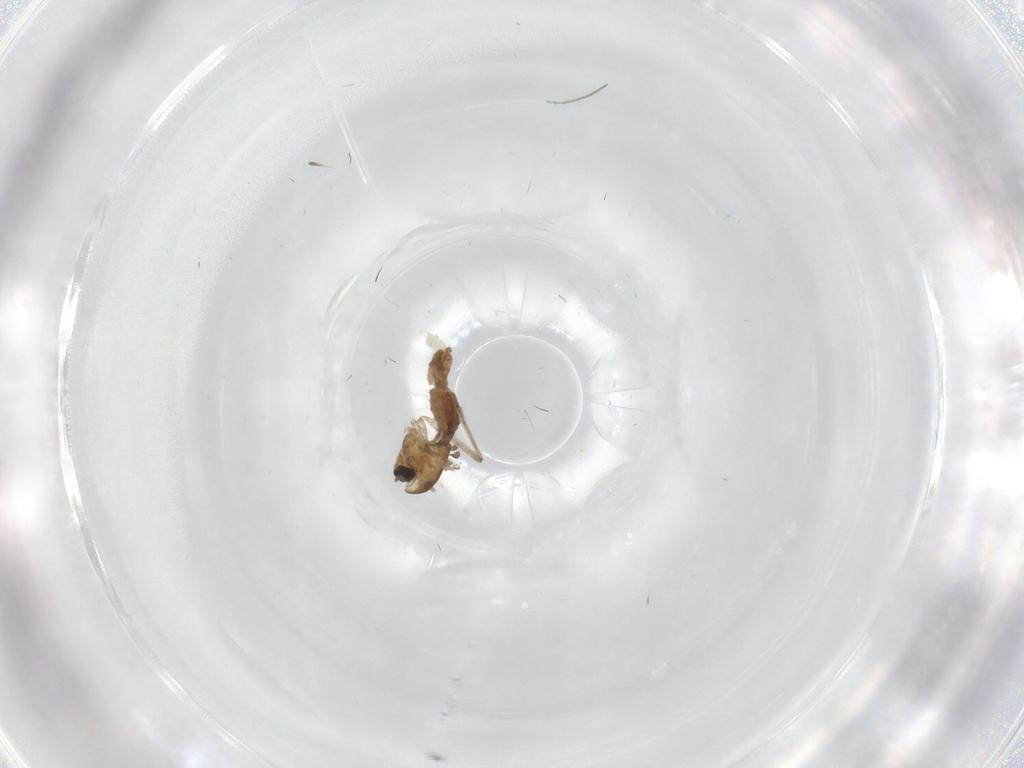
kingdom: Animalia
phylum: Arthropoda
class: Insecta
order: Diptera
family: Chironomidae
